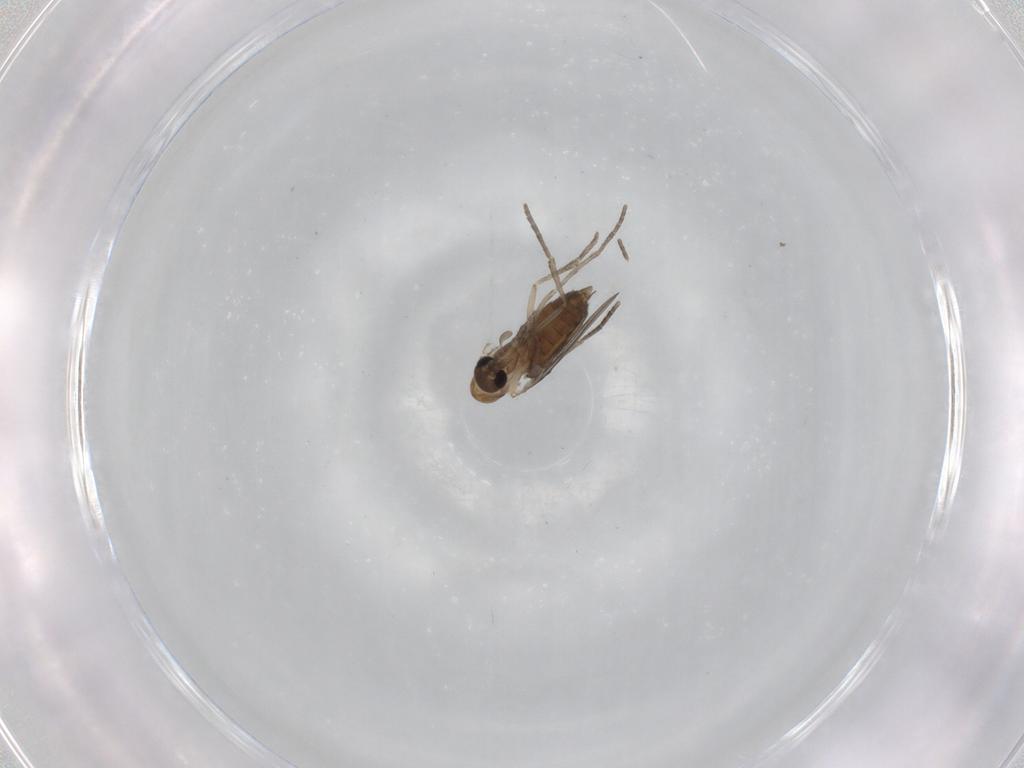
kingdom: Animalia
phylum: Arthropoda
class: Insecta
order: Diptera
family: Psychodidae
